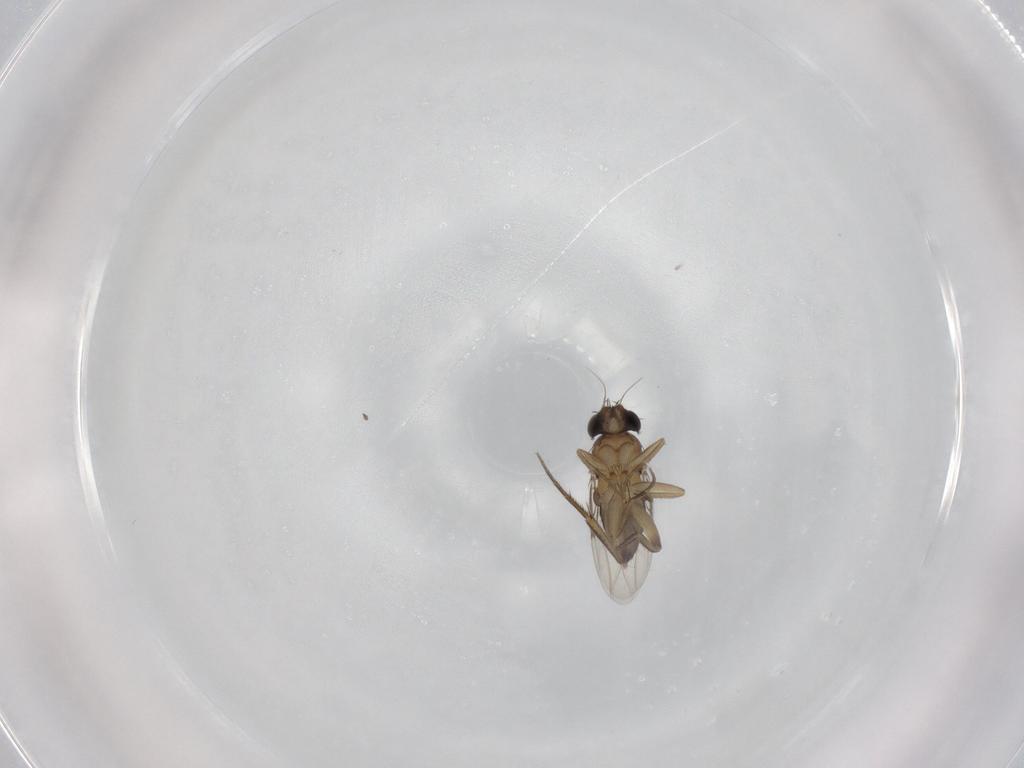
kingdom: Animalia
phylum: Arthropoda
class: Insecta
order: Diptera
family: Phoridae
